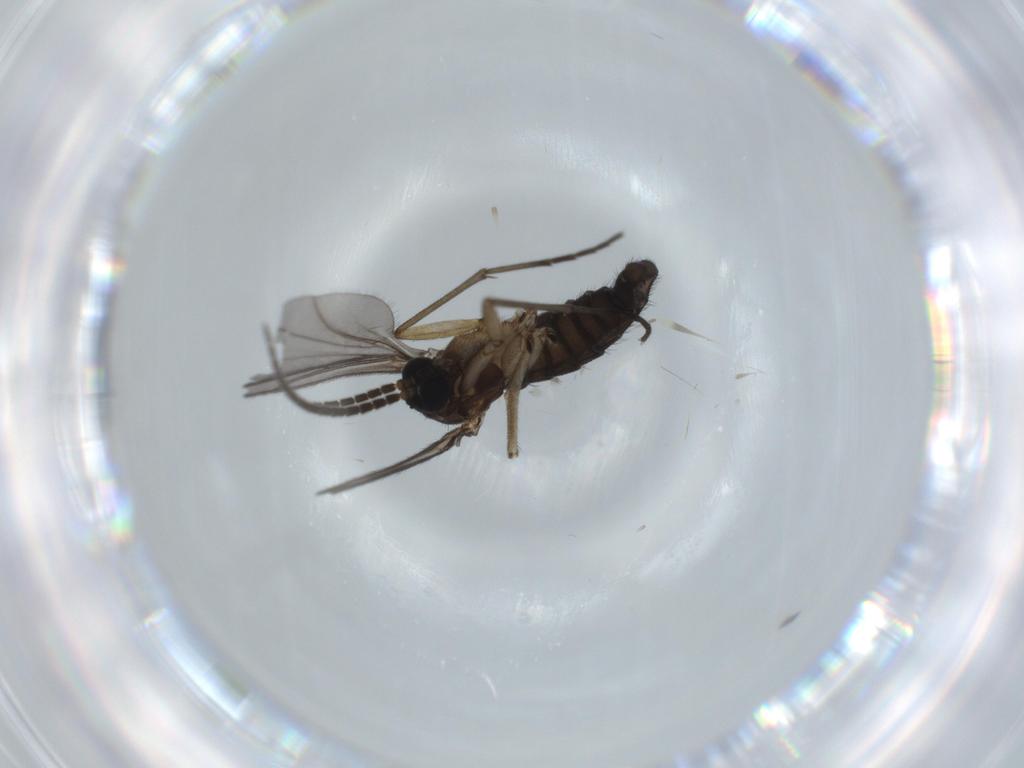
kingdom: Animalia
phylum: Arthropoda
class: Insecta
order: Diptera
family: Sciaridae
